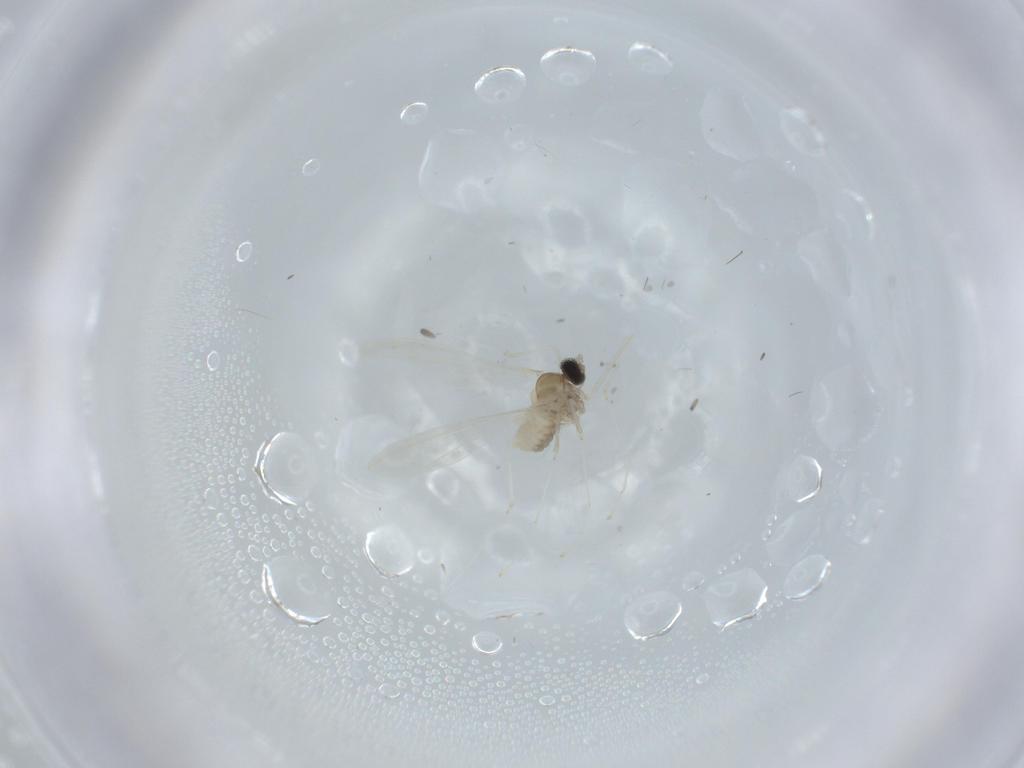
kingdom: Animalia
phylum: Arthropoda
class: Insecta
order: Diptera
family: Cecidomyiidae
